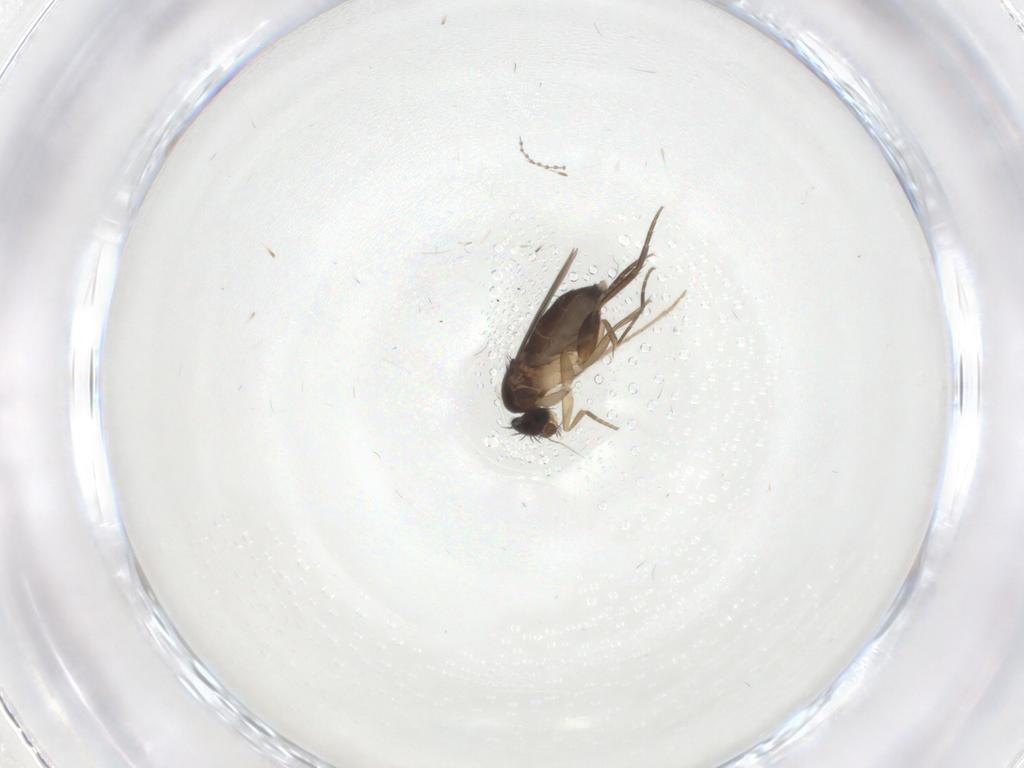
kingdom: Animalia
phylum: Arthropoda
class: Insecta
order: Diptera
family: Phoridae
